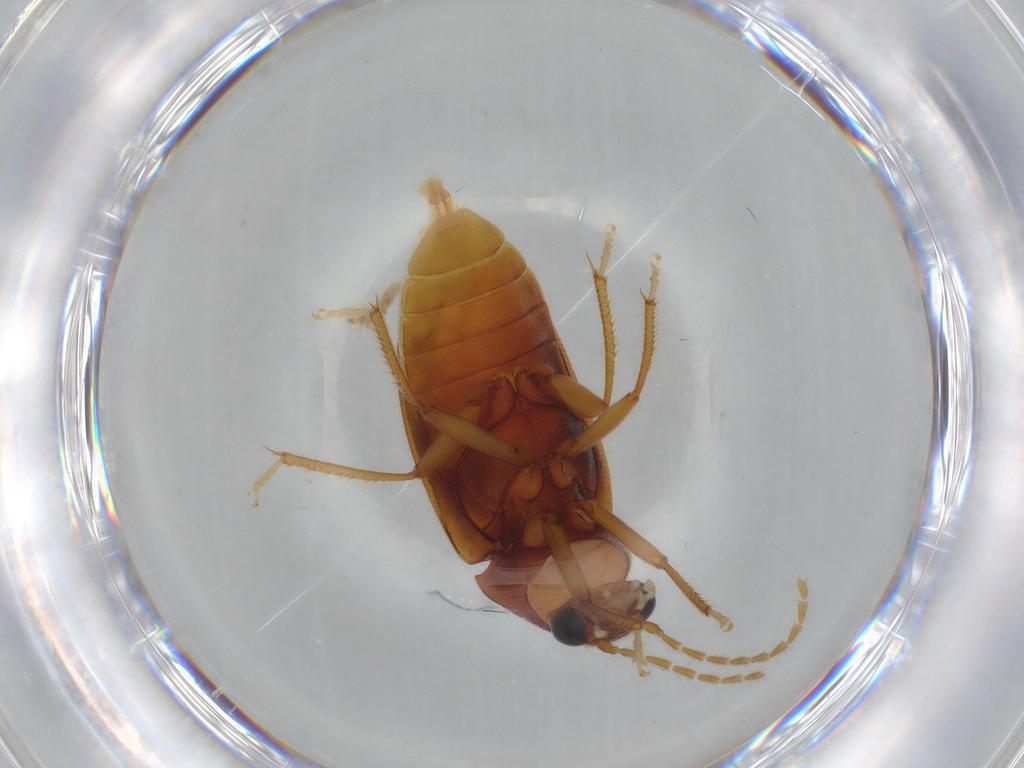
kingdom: Animalia
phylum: Arthropoda
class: Insecta
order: Coleoptera
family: Ptilodactylidae
